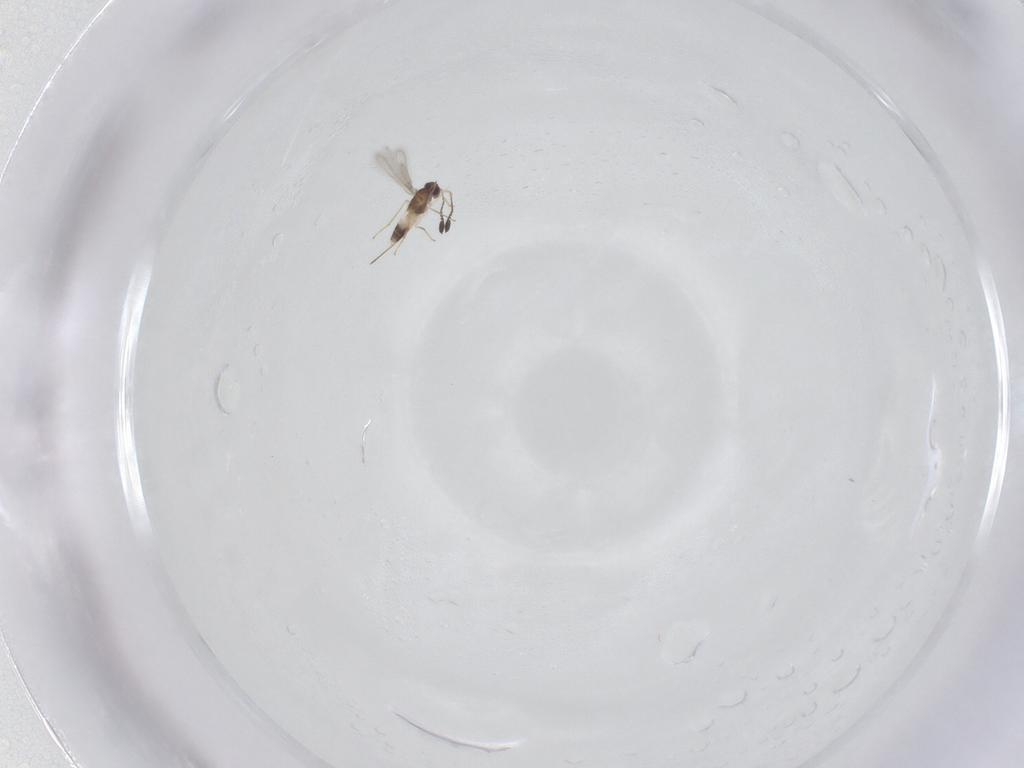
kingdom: Animalia
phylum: Arthropoda
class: Insecta
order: Hymenoptera
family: Mymaridae
